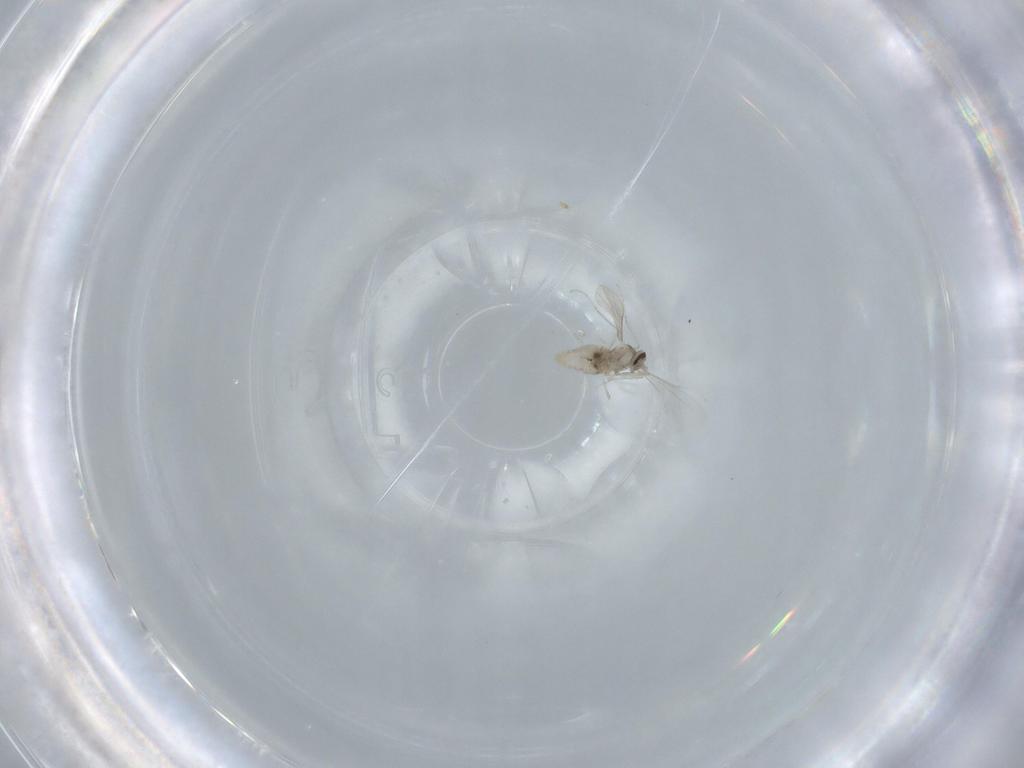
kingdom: Animalia
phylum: Arthropoda
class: Insecta
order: Diptera
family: Cecidomyiidae
